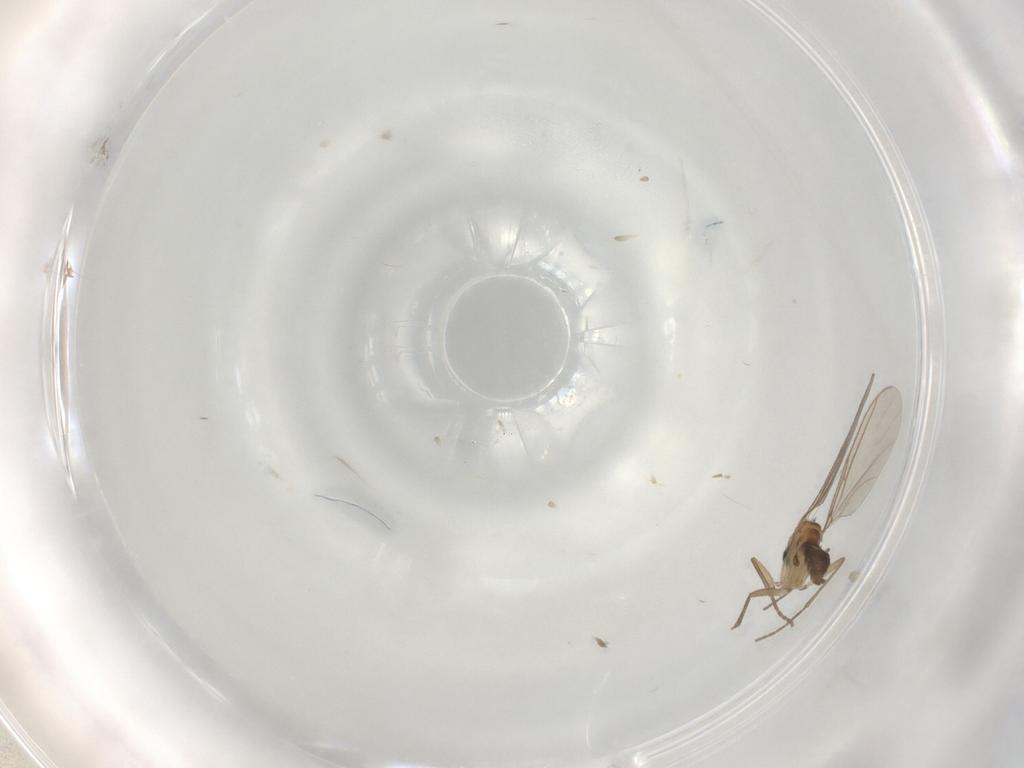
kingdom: Animalia
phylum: Arthropoda
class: Insecta
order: Diptera
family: Sciaridae
